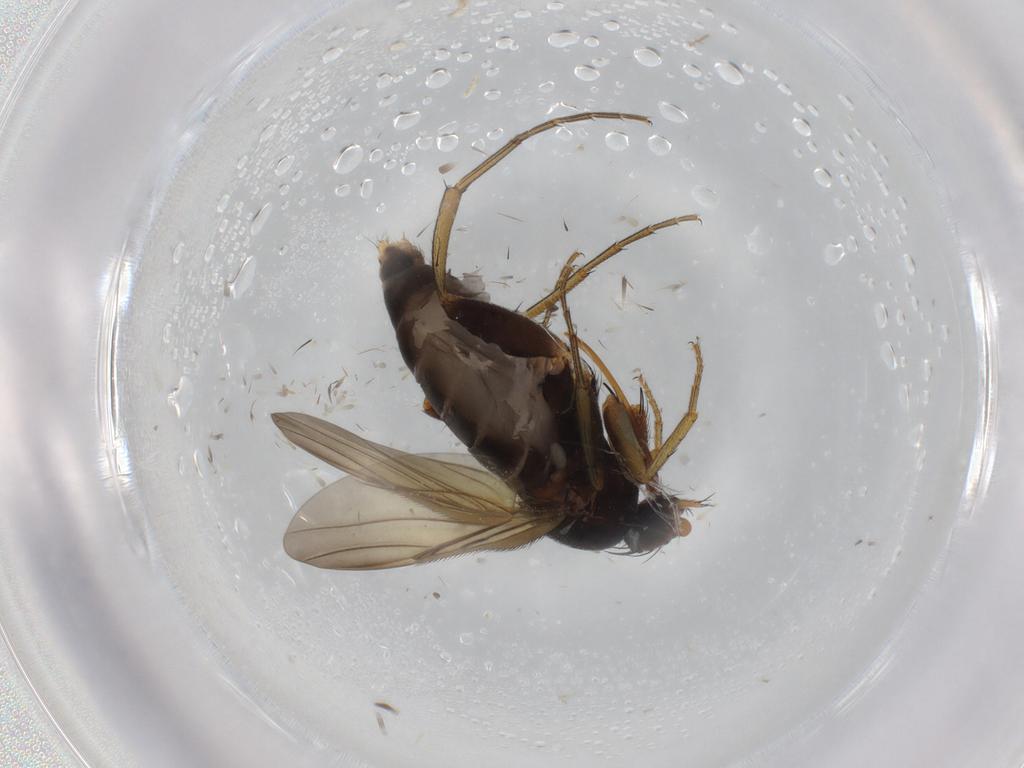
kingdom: Animalia
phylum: Arthropoda
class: Insecta
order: Diptera
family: Phoridae
